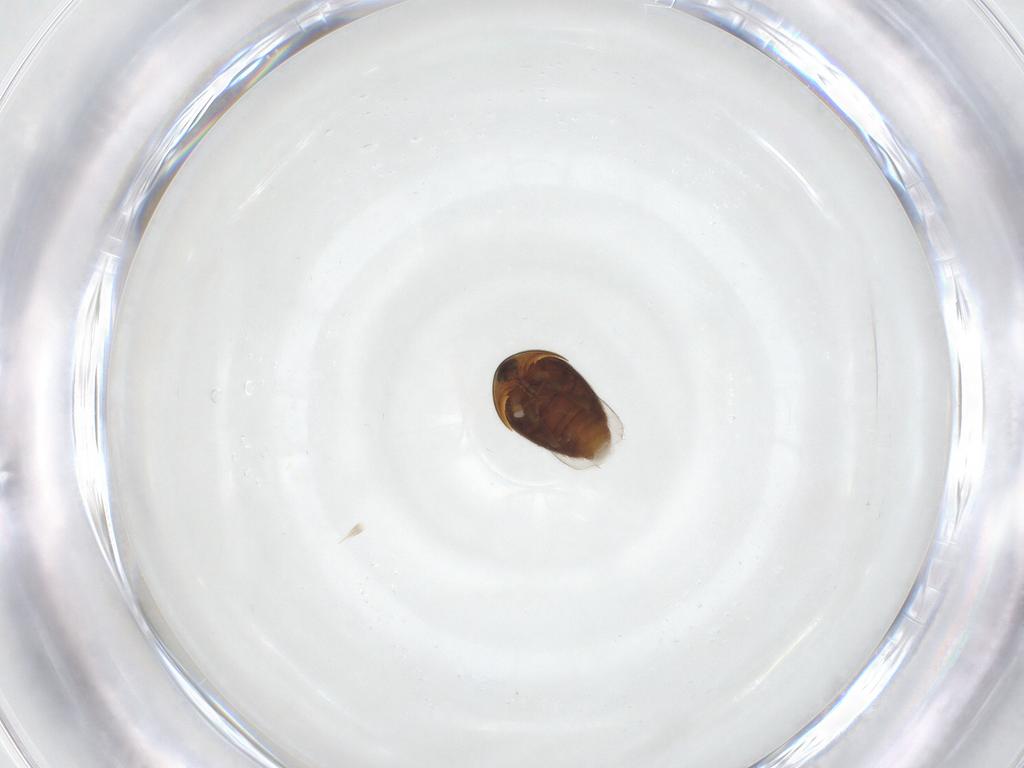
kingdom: Animalia
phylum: Arthropoda
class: Insecta
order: Coleoptera
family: Corylophidae
